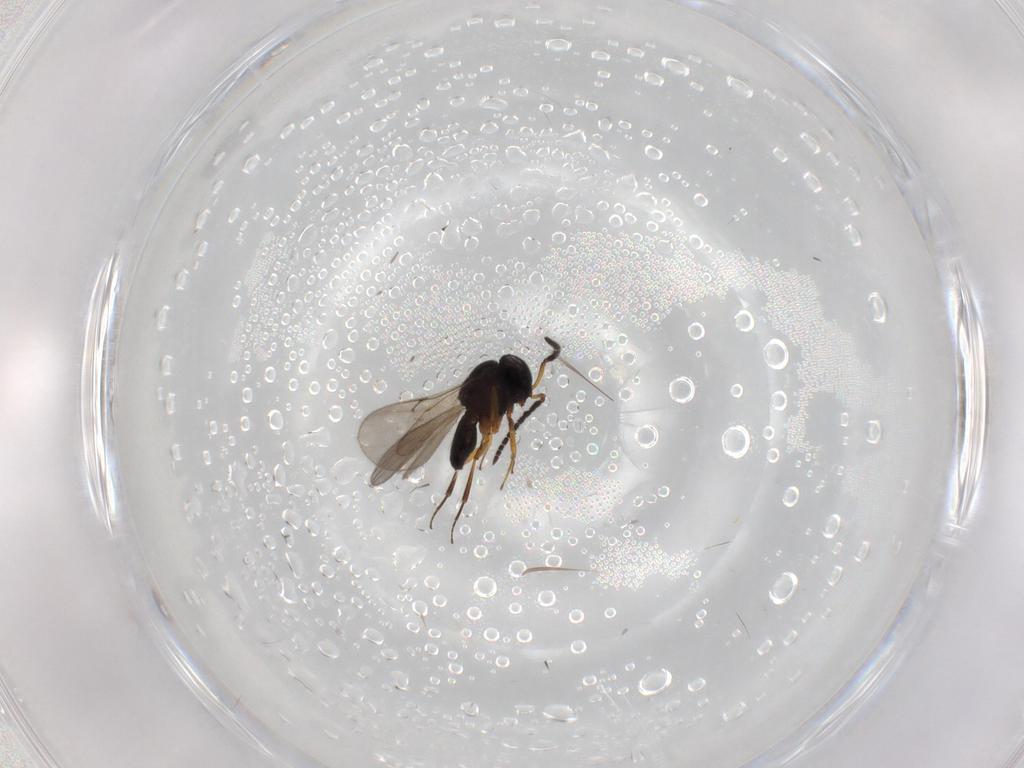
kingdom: Animalia
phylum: Arthropoda
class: Insecta
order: Hymenoptera
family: Scelionidae
